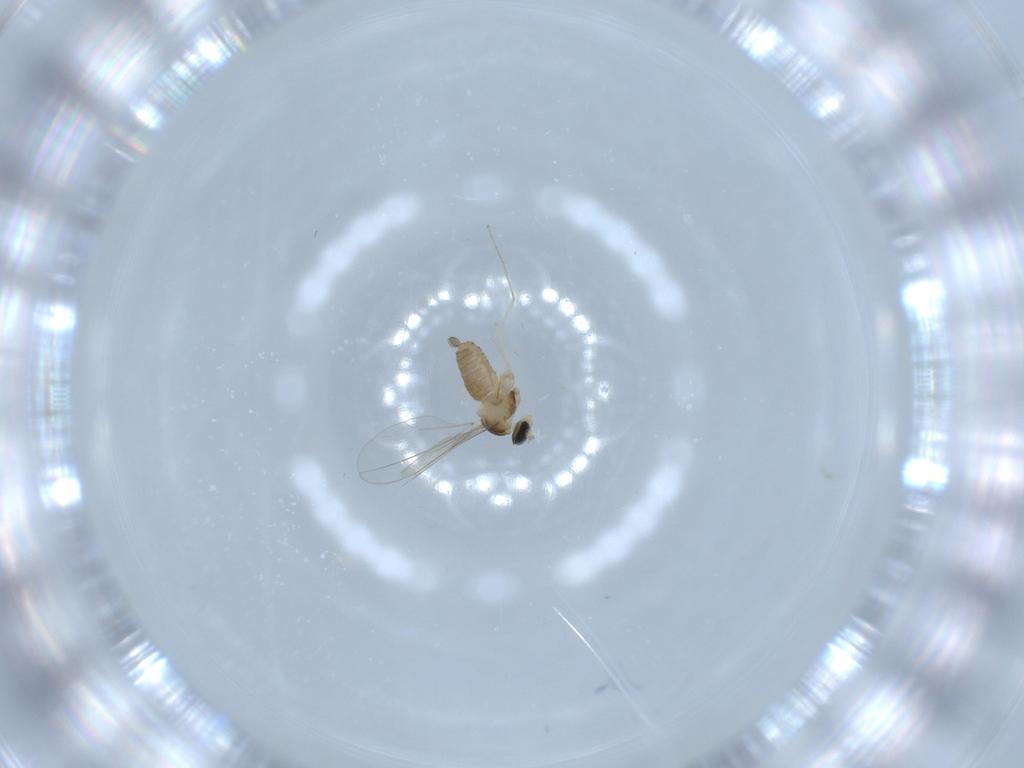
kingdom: Animalia
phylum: Arthropoda
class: Insecta
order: Diptera
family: Cecidomyiidae
